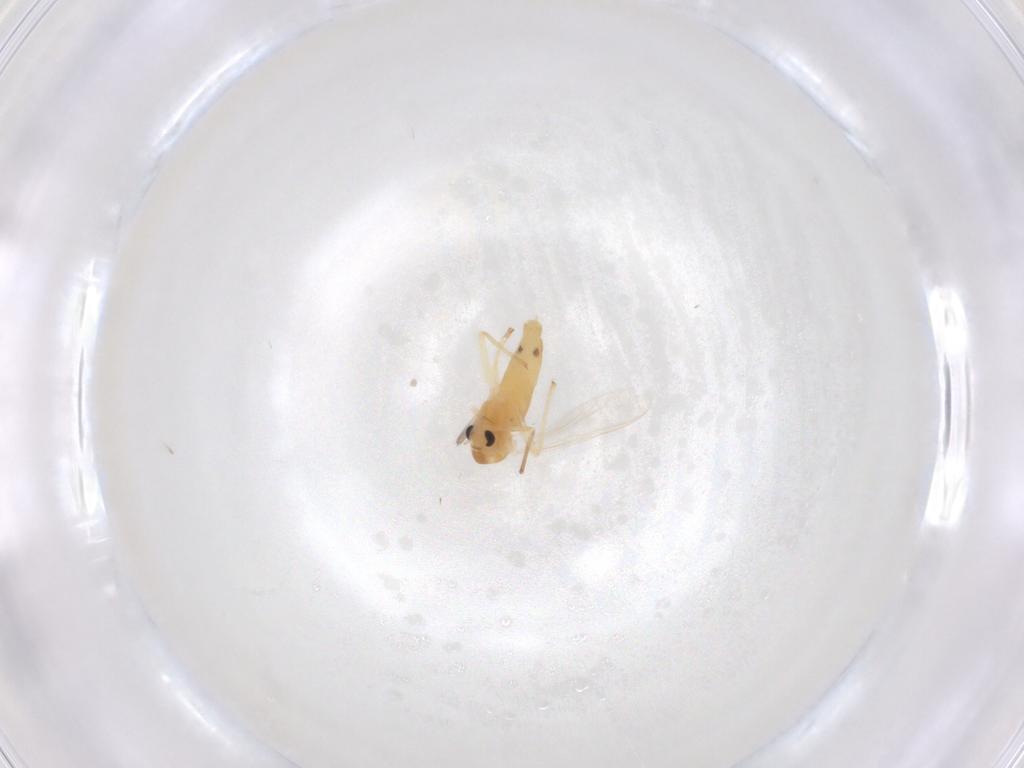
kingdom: Animalia
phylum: Arthropoda
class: Insecta
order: Diptera
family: Chironomidae
